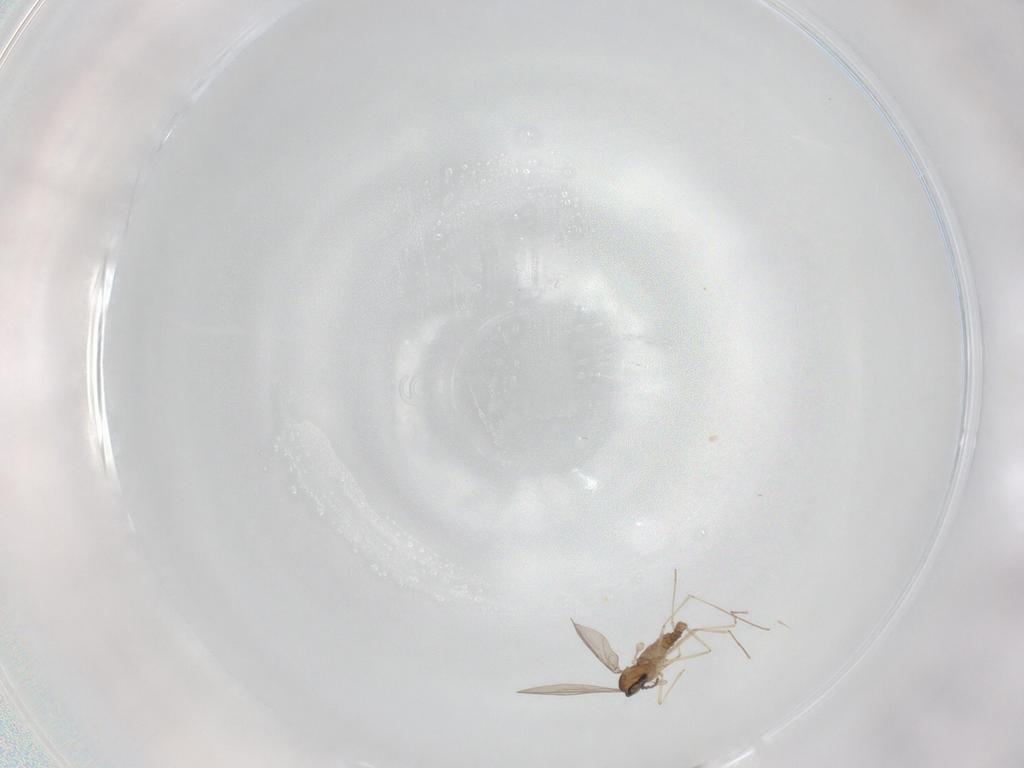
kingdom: Animalia
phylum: Arthropoda
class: Insecta
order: Diptera
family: Cecidomyiidae
